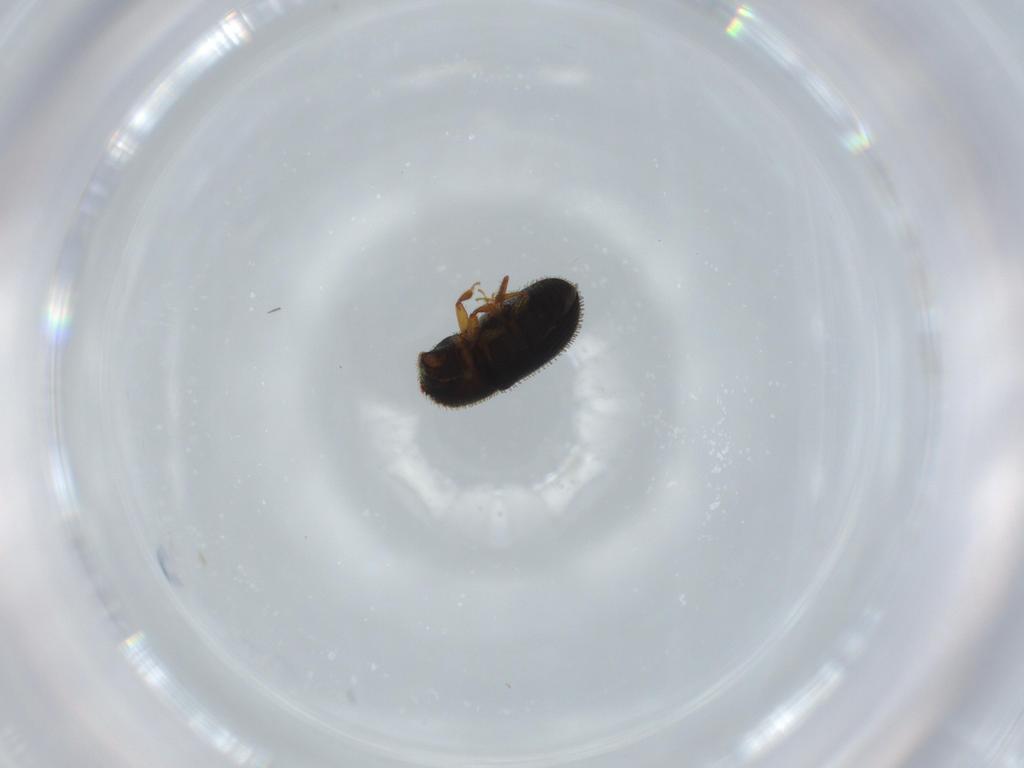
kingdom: Animalia
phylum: Arthropoda
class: Insecta
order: Coleoptera
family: Curculionidae
